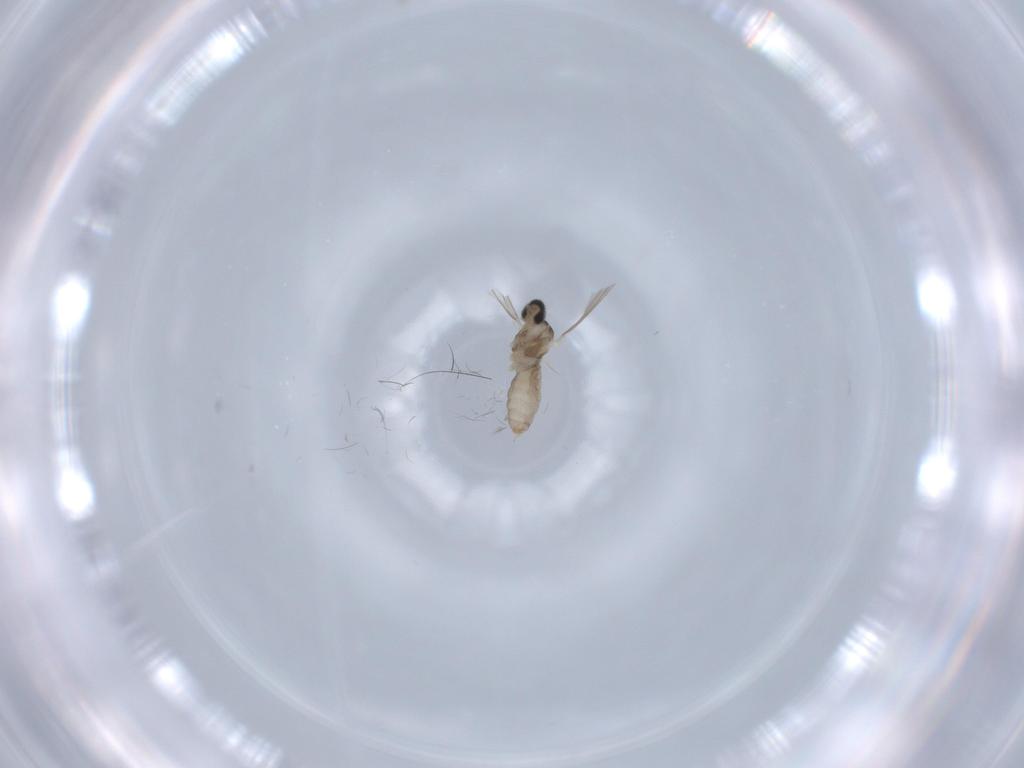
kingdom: Animalia
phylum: Arthropoda
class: Insecta
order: Diptera
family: Cecidomyiidae
